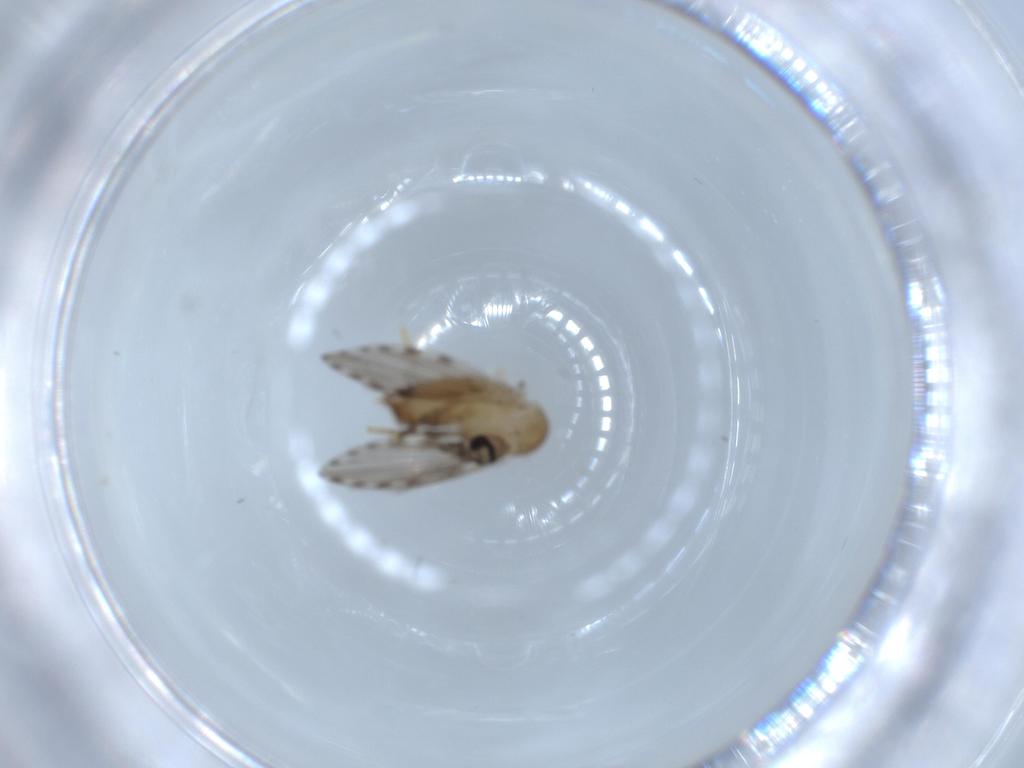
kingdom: Animalia
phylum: Arthropoda
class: Insecta
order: Diptera
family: Psychodidae
